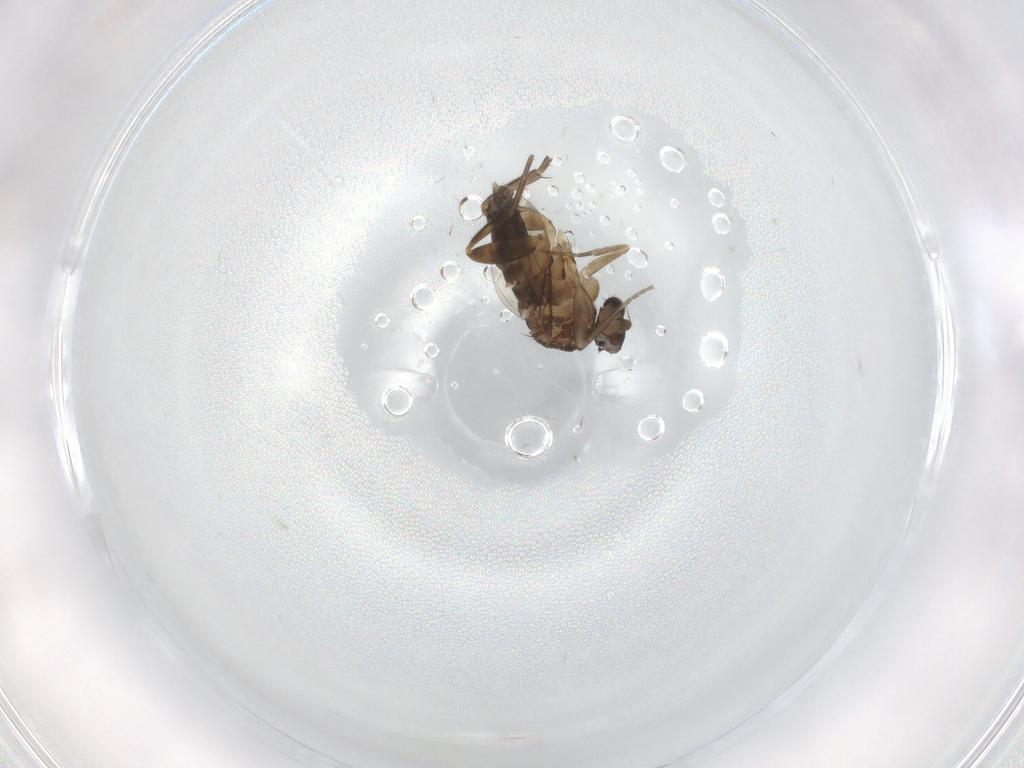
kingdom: Animalia
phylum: Arthropoda
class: Insecta
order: Diptera
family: Phoridae
